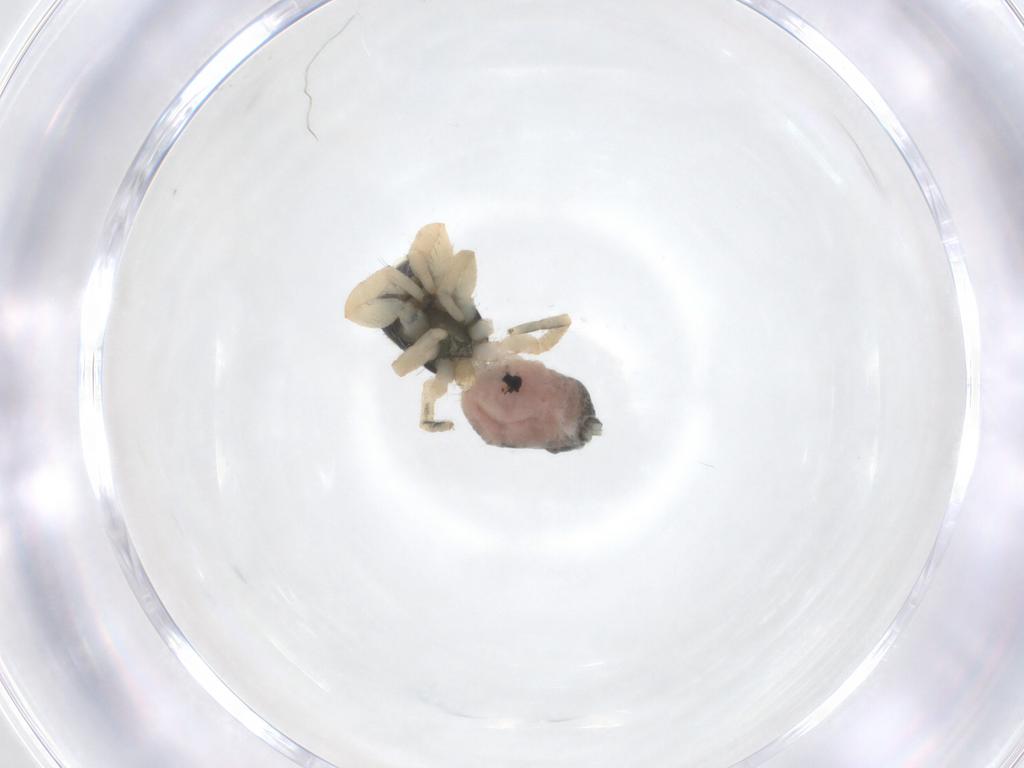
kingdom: Animalia
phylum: Arthropoda
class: Arachnida
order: Araneae
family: Salticidae
